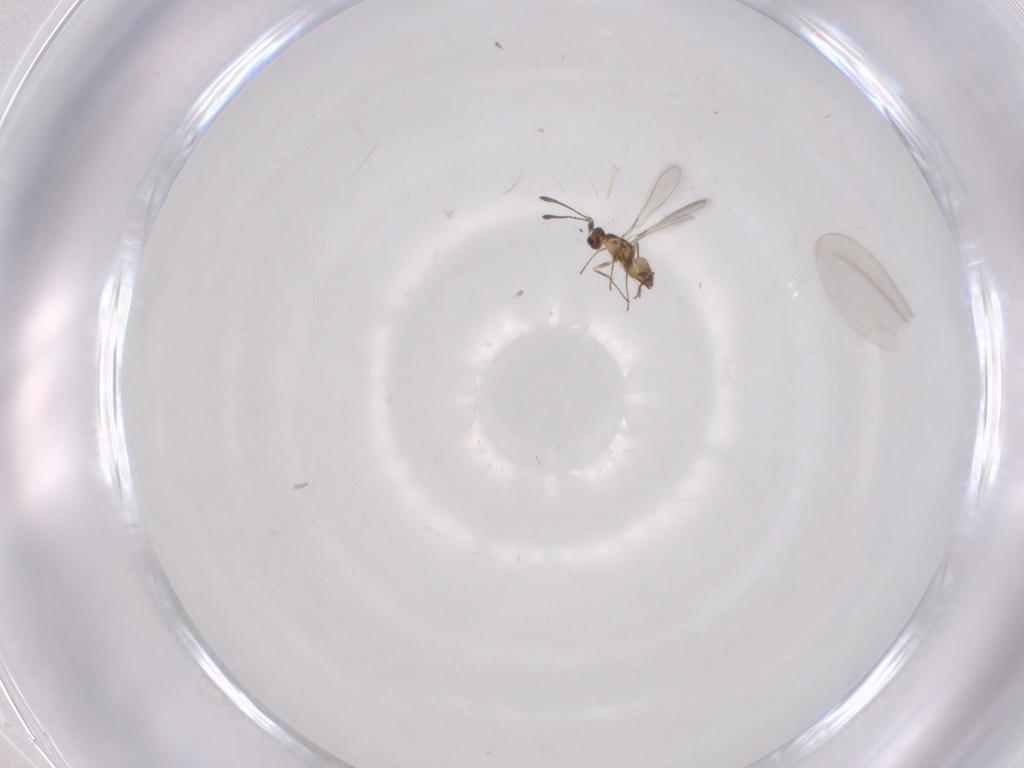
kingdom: Animalia
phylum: Arthropoda
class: Insecta
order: Hymenoptera
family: Mymaridae
